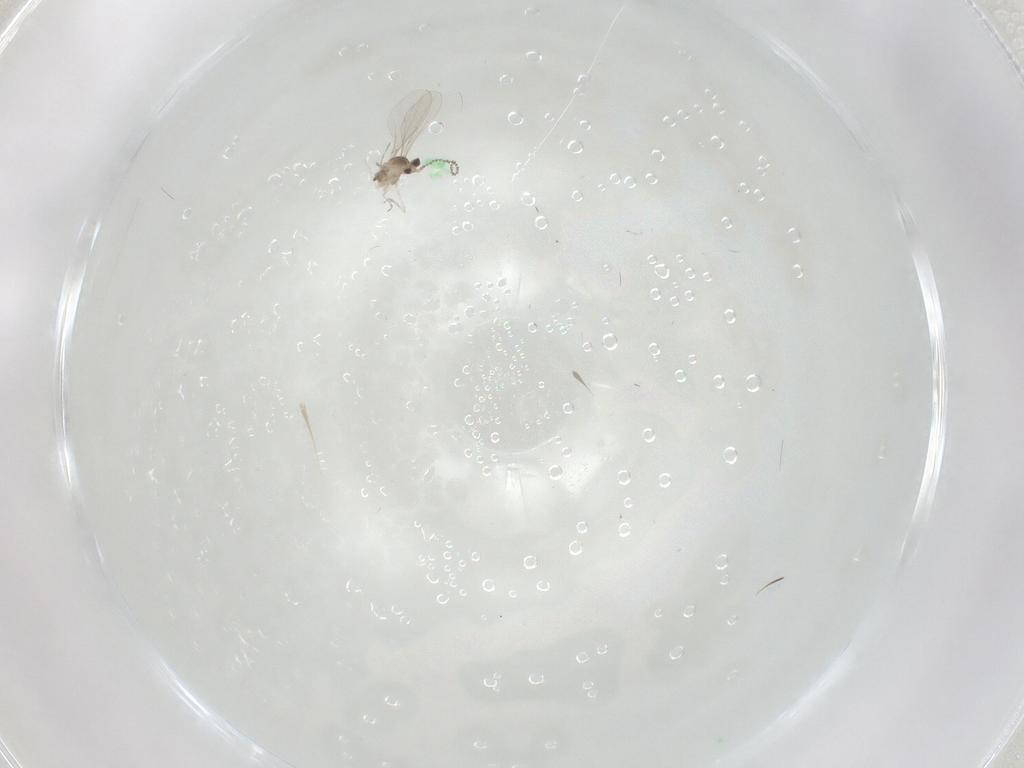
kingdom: Animalia
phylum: Arthropoda
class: Insecta
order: Diptera
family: Cecidomyiidae
